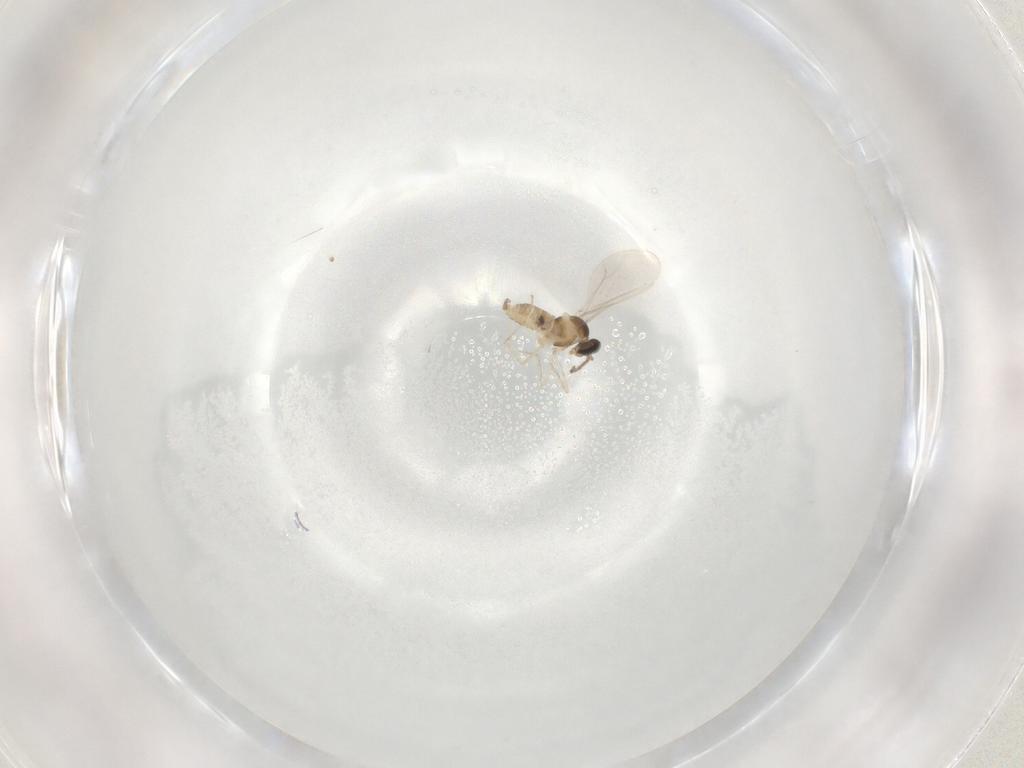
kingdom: Animalia
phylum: Arthropoda
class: Insecta
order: Diptera
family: Cecidomyiidae
